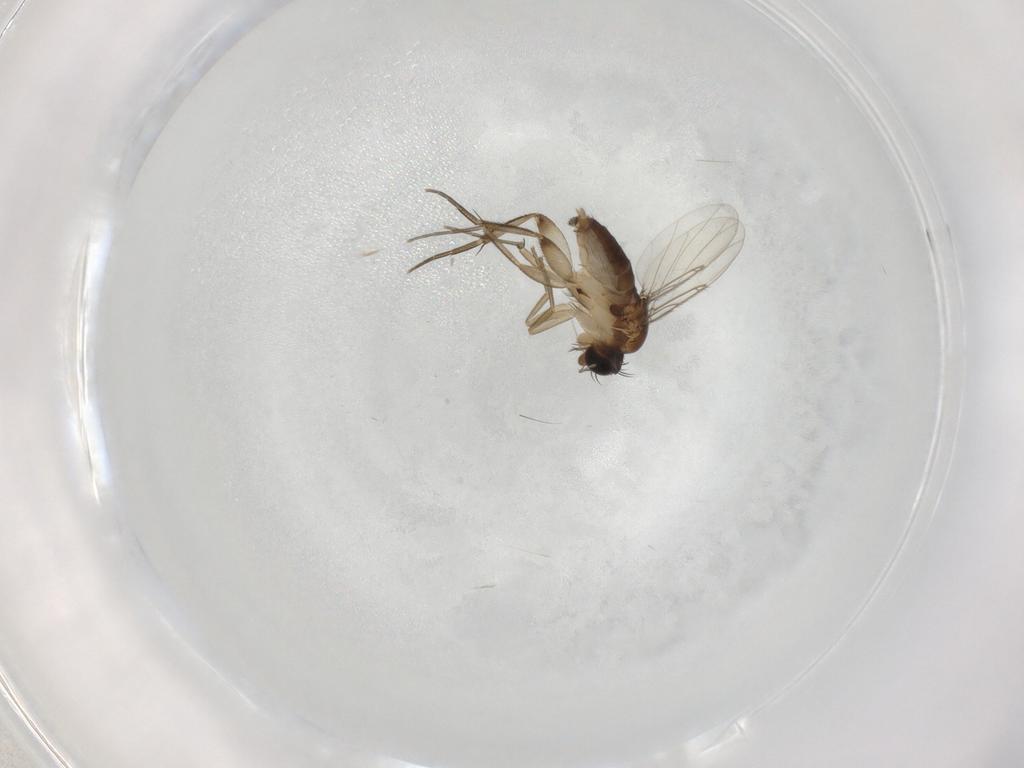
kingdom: Animalia
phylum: Arthropoda
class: Insecta
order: Diptera
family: Phoridae
